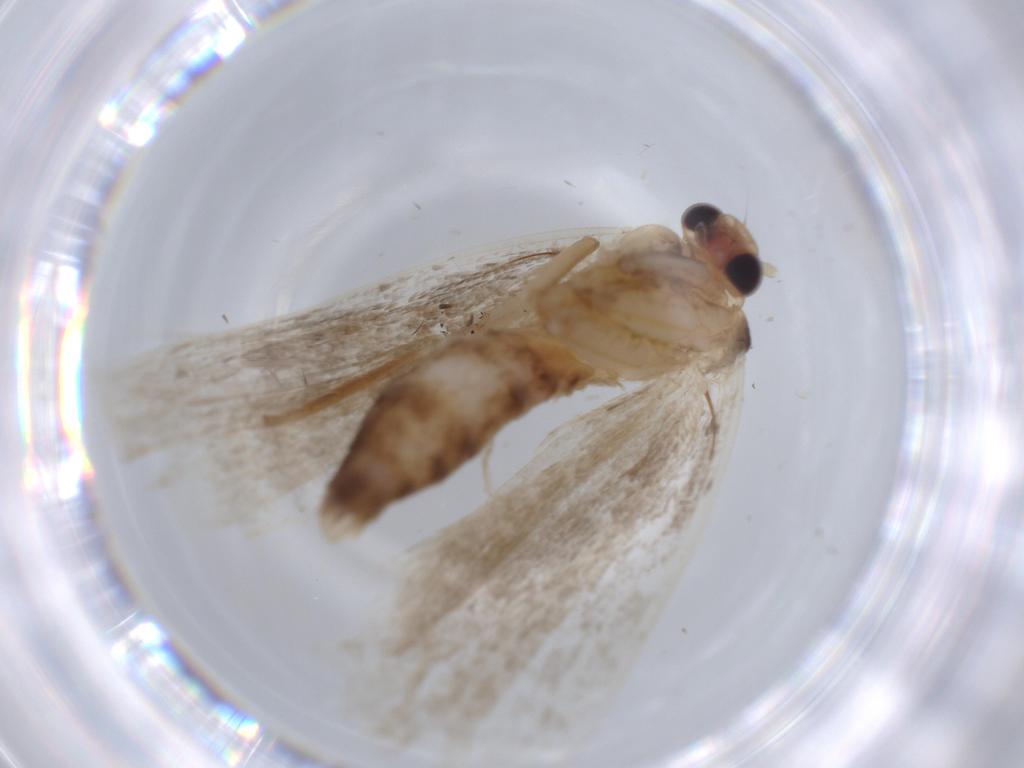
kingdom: Animalia
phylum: Arthropoda
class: Insecta
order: Lepidoptera
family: Erebidae
